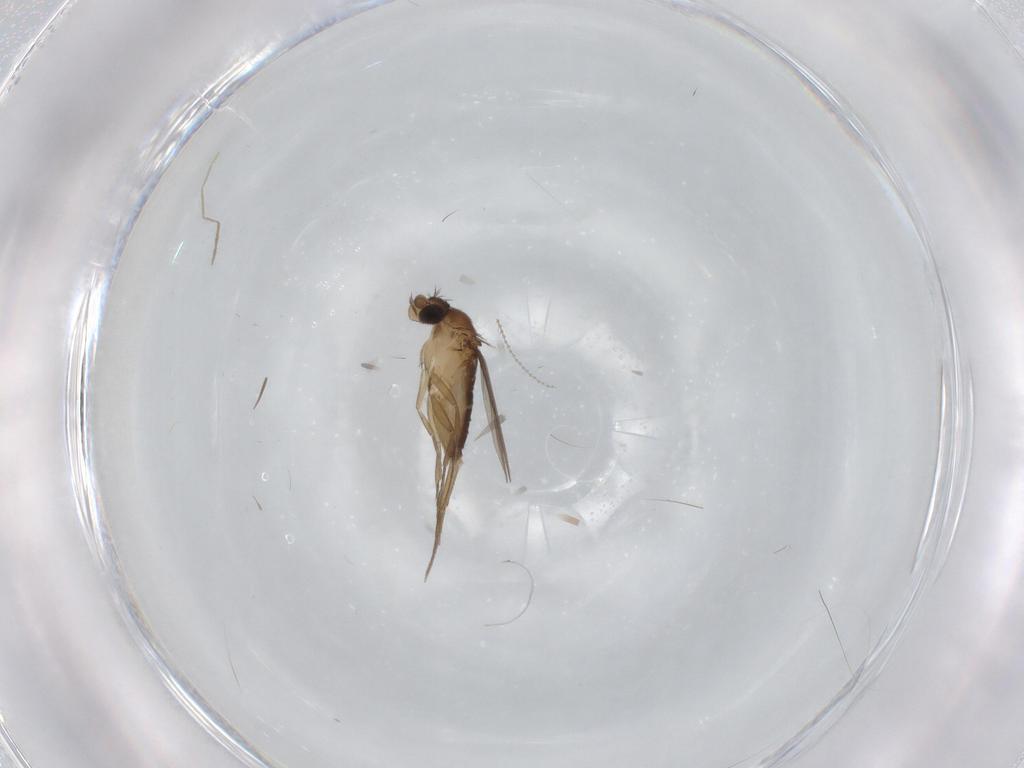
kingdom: Animalia
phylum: Arthropoda
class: Insecta
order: Diptera
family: Phoridae
